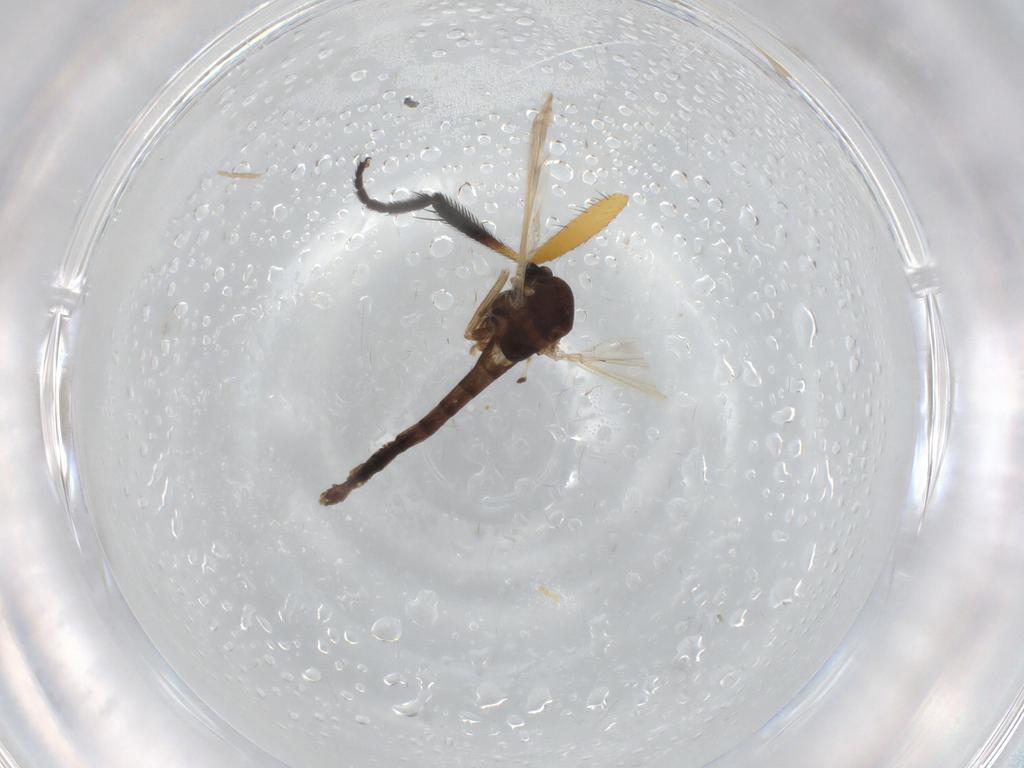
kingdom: Animalia
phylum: Arthropoda
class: Insecta
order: Diptera
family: Chironomidae
